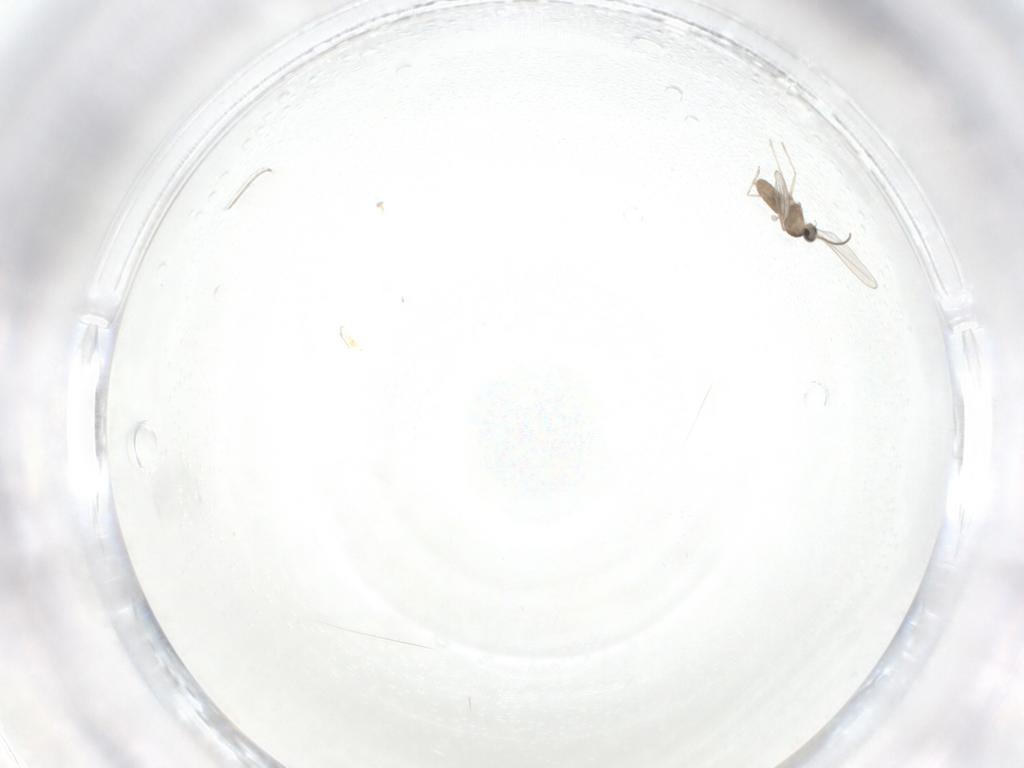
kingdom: Animalia
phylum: Arthropoda
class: Insecta
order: Diptera
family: Cecidomyiidae
